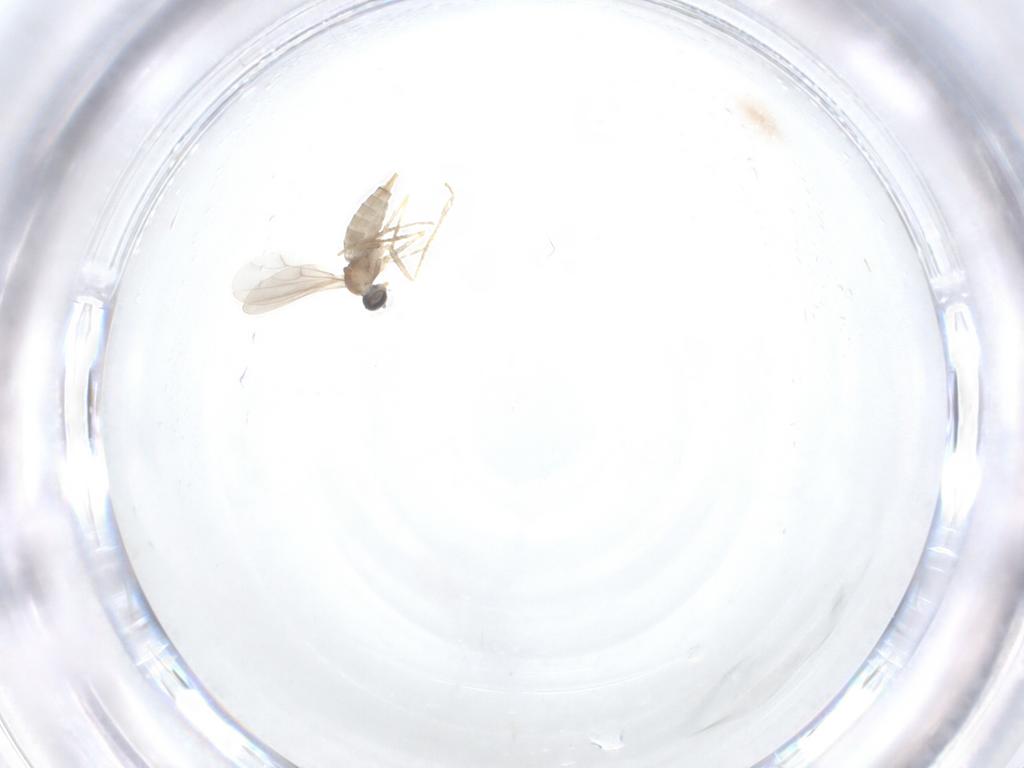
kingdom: Animalia
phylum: Arthropoda
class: Insecta
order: Diptera
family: Cecidomyiidae
